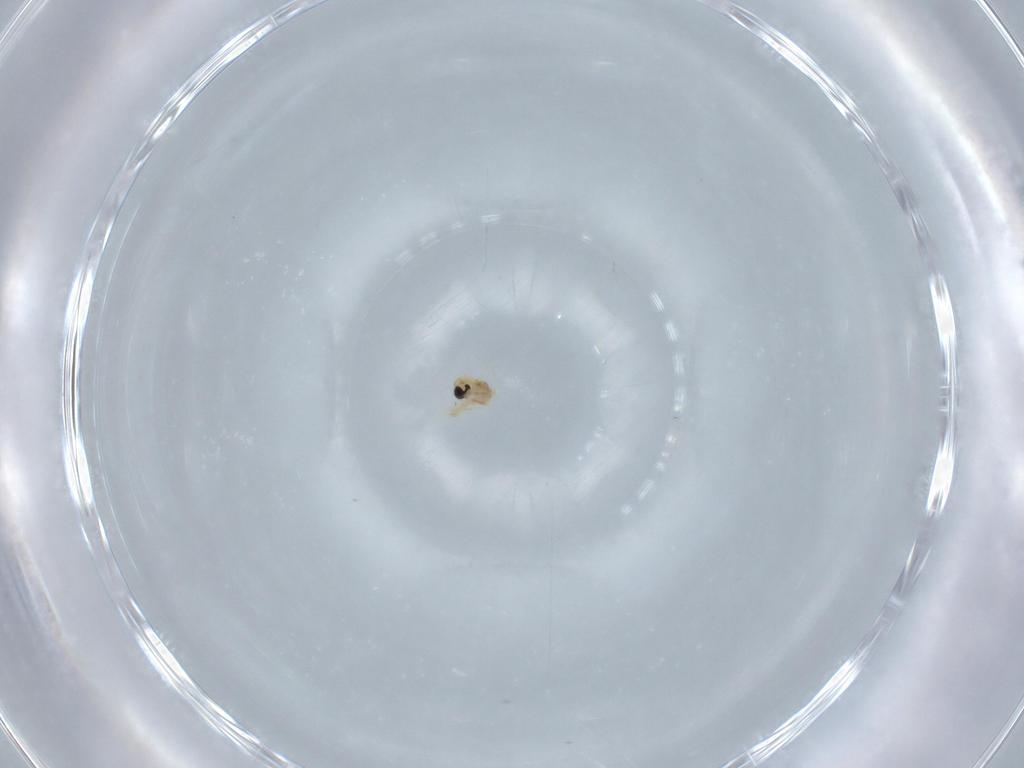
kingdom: Animalia
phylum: Arthropoda
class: Insecta
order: Diptera
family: Cecidomyiidae
